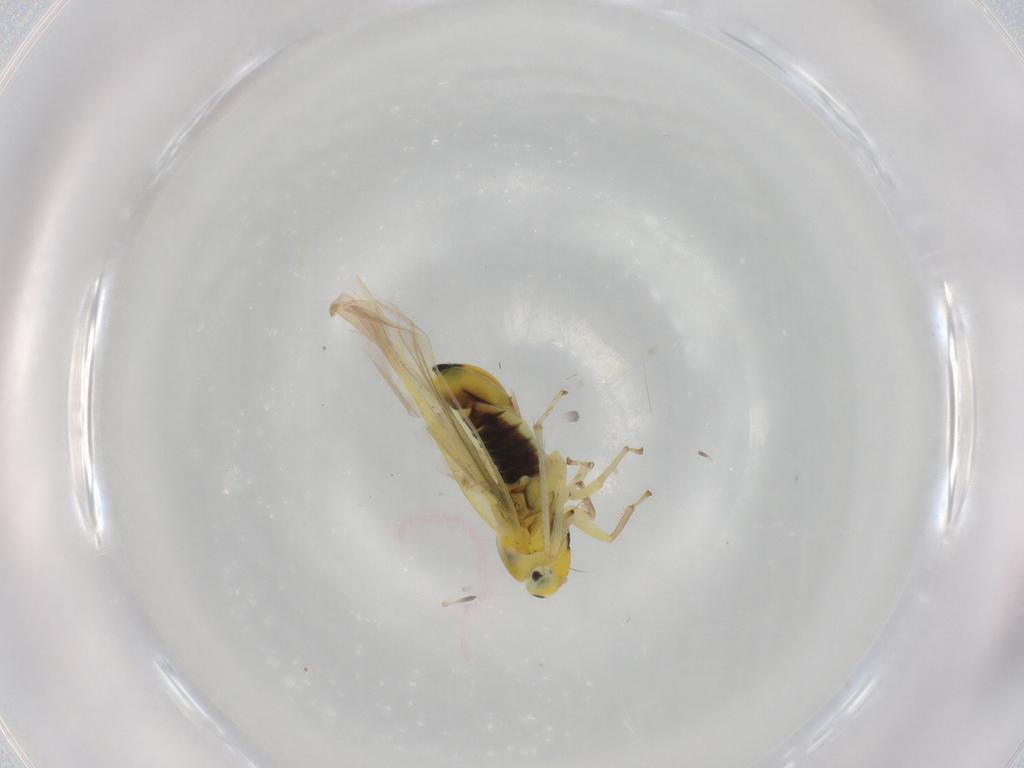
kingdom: Animalia
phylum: Arthropoda
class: Insecta
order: Hemiptera
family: Cicadellidae
